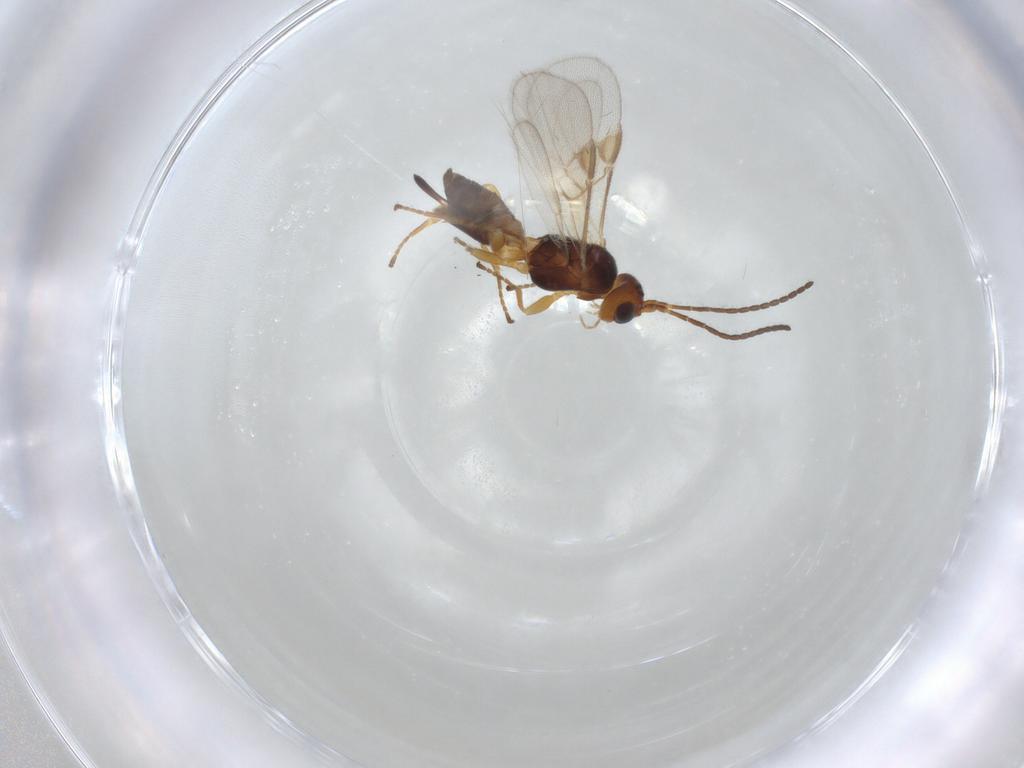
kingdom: Animalia
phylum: Arthropoda
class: Insecta
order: Hymenoptera
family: Braconidae
